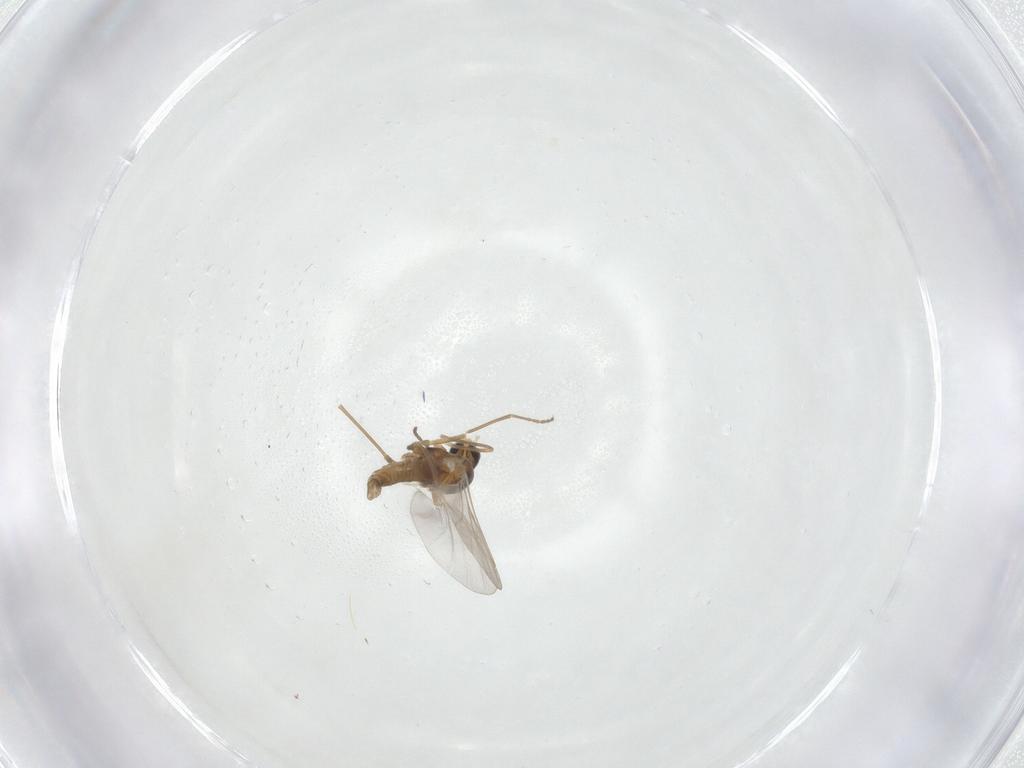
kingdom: Animalia
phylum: Arthropoda
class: Insecta
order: Diptera
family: Cecidomyiidae
